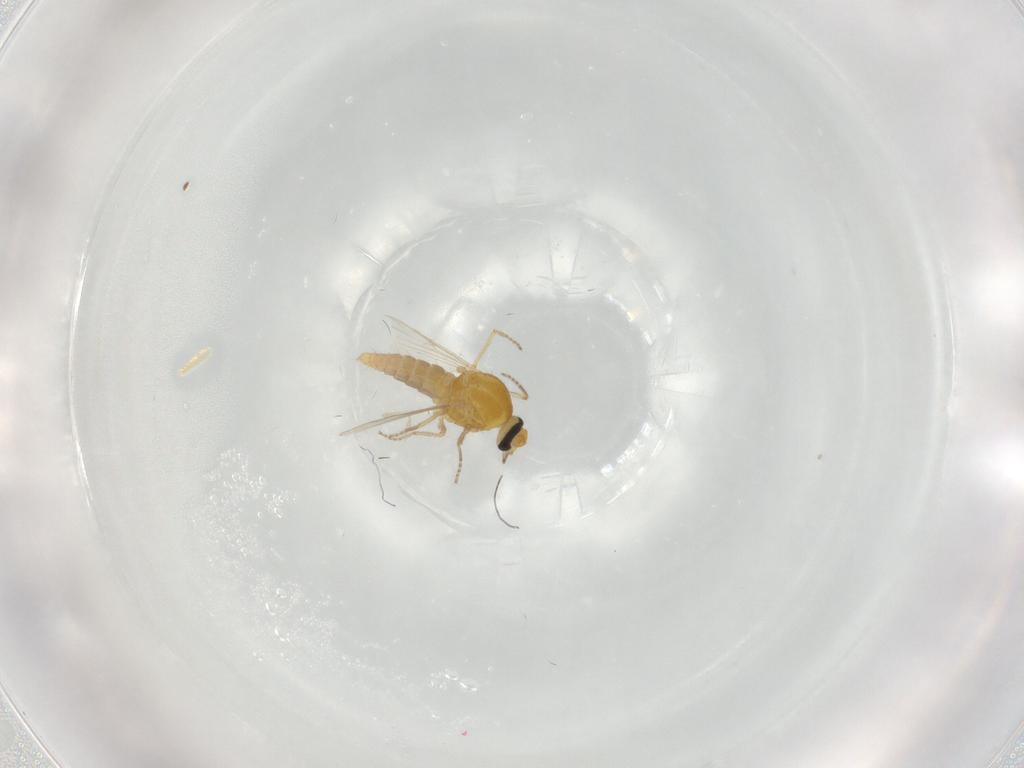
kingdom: Animalia
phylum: Arthropoda
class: Insecta
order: Diptera
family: Cecidomyiidae
